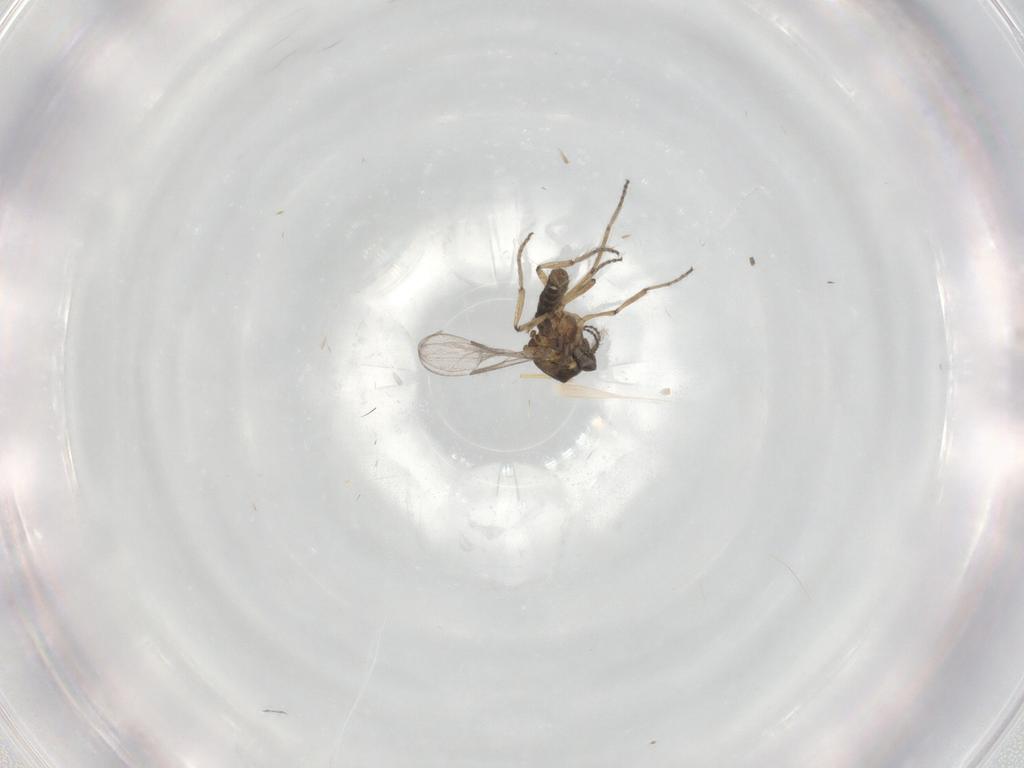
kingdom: Animalia
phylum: Arthropoda
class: Insecta
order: Diptera
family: Ceratopogonidae
